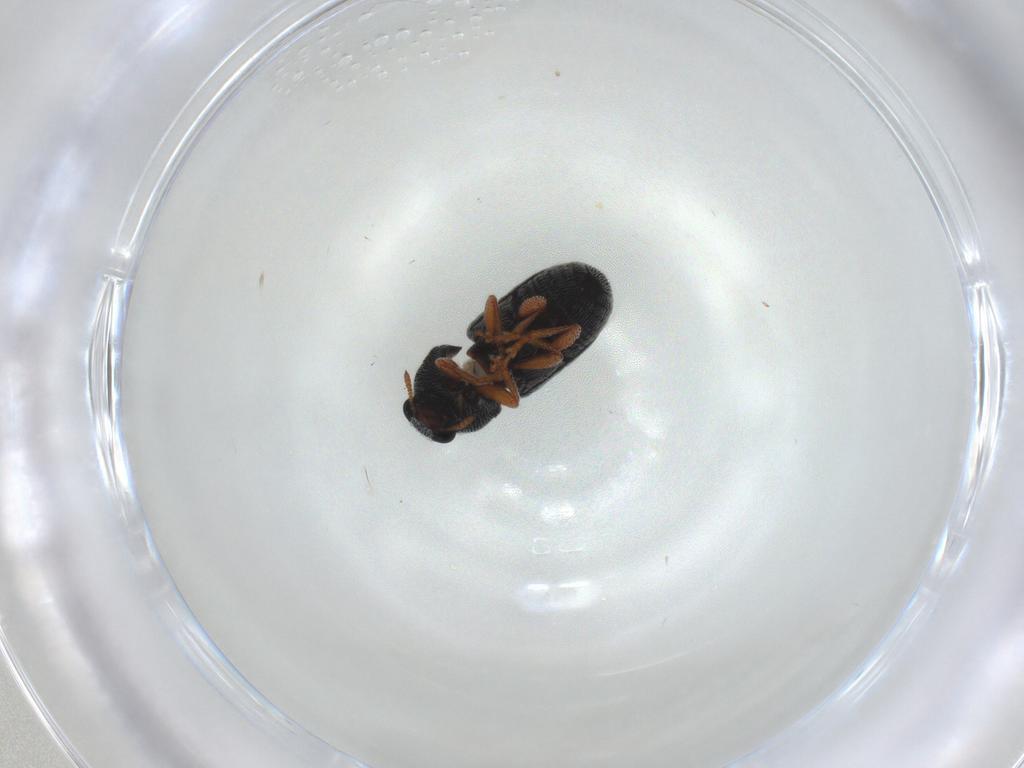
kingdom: Animalia
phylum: Arthropoda
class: Insecta
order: Coleoptera
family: Anthribidae
